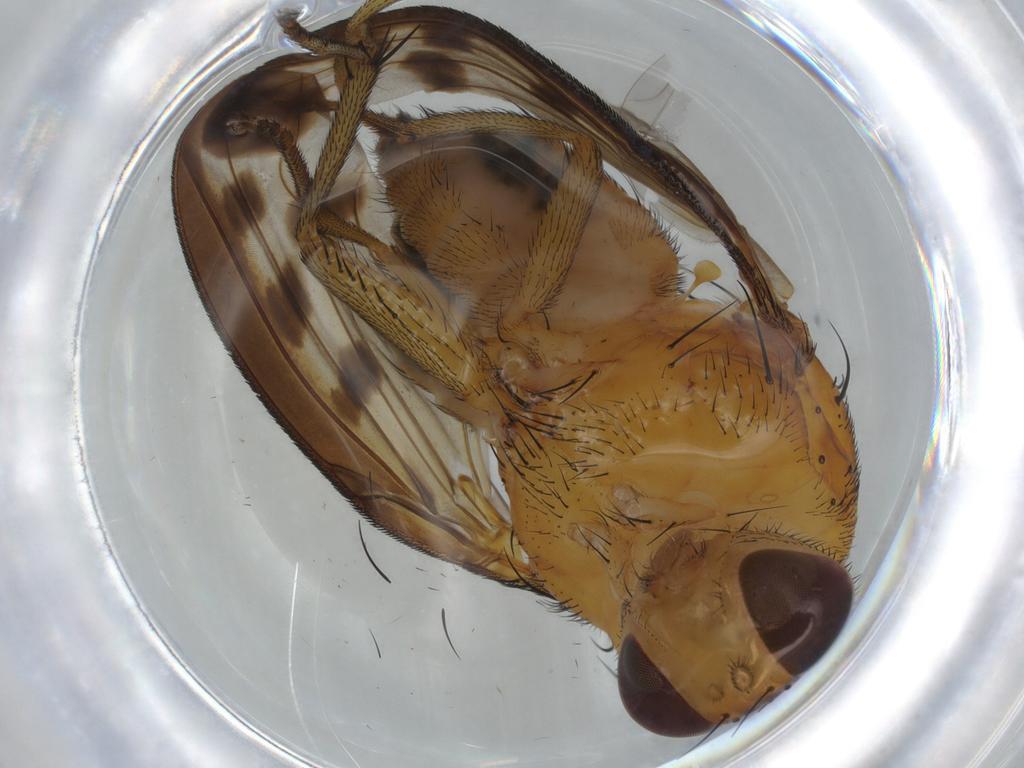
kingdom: Animalia
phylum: Arthropoda
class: Insecta
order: Diptera
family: Cecidomyiidae
